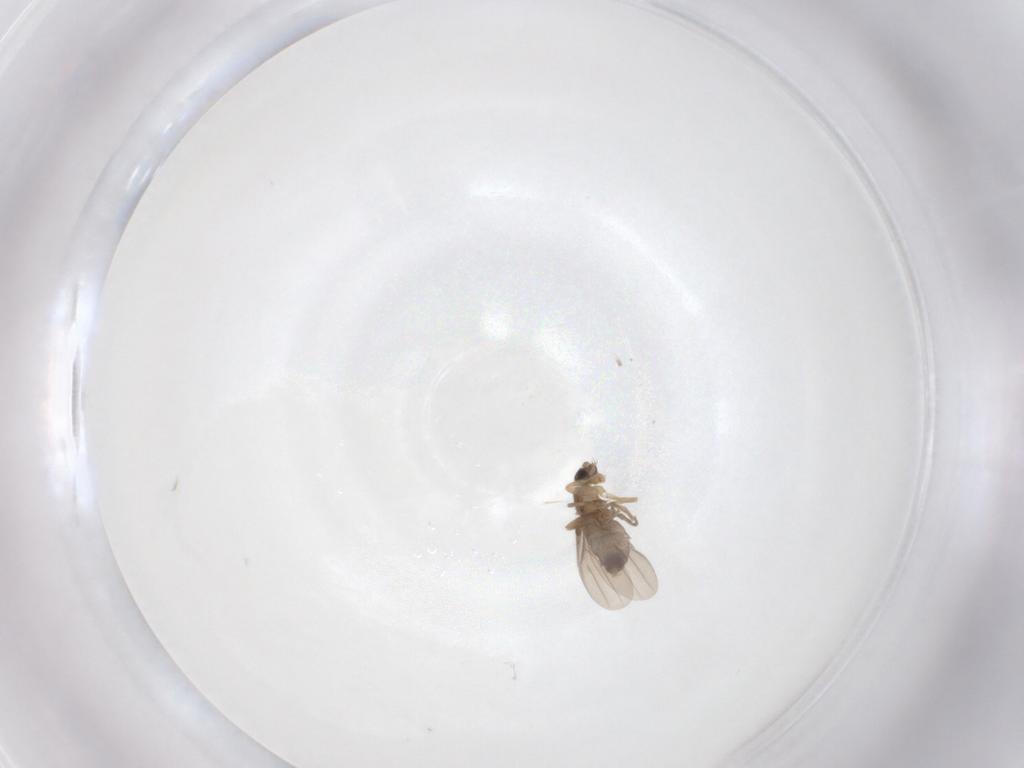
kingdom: Animalia
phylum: Arthropoda
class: Insecta
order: Diptera
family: Phoridae
